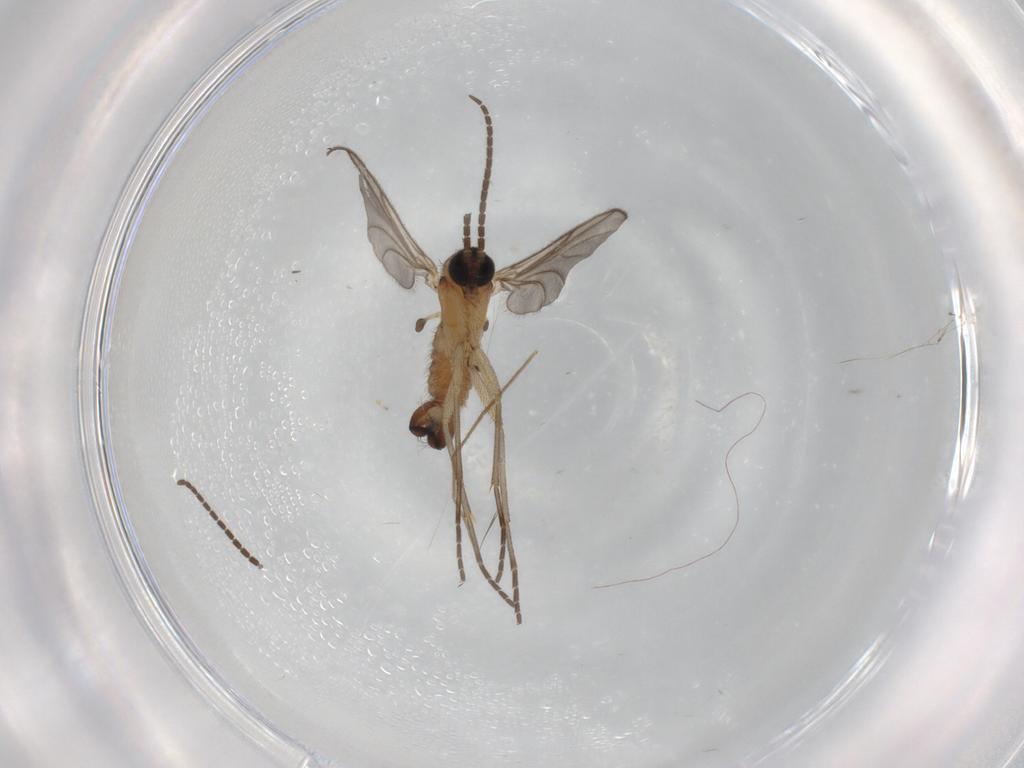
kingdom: Animalia
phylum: Arthropoda
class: Insecta
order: Diptera
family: Sciaridae
